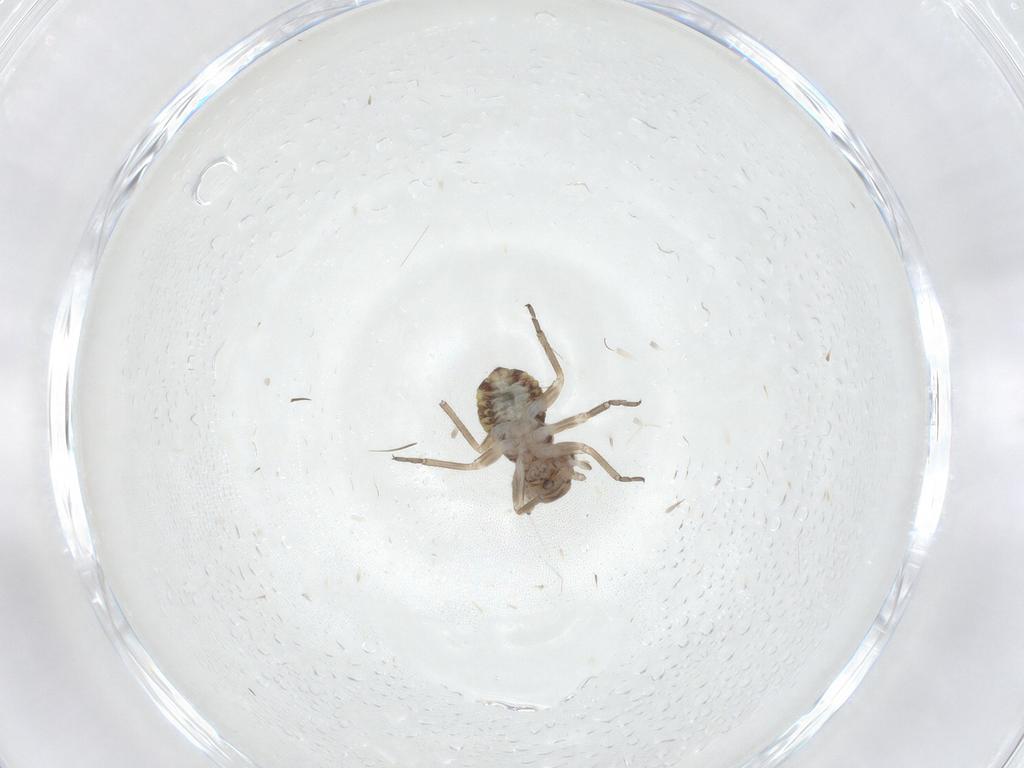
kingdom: Animalia
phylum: Arthropoda
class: Insecta
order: Psocodea
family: Psocidae
